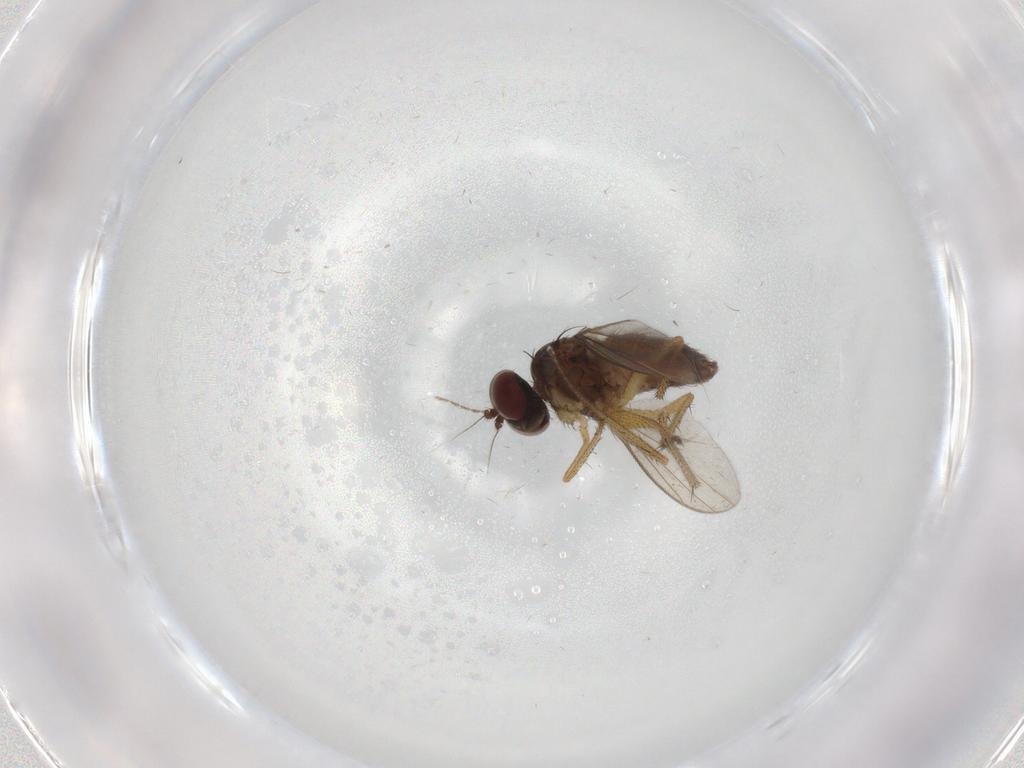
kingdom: Animalia
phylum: Arthropoda
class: Insecta
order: Diptera
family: Dolichopodidae
